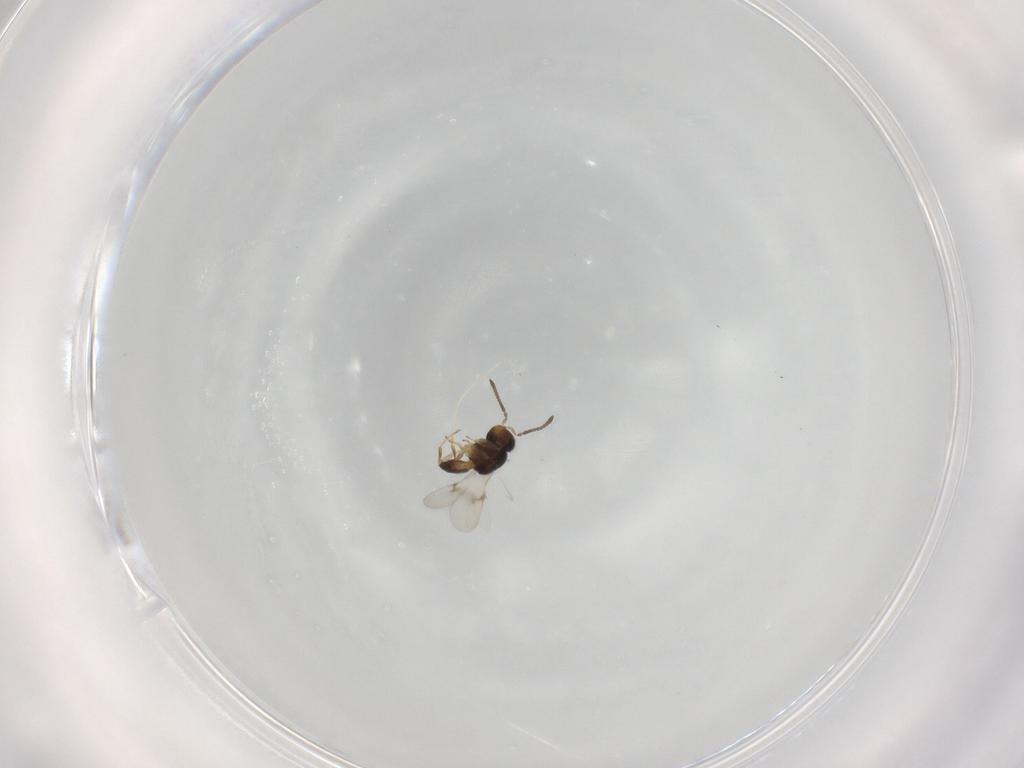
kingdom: Animalia
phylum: Arthropoda
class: Insecta
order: Hymenoptera
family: Scelionidae
